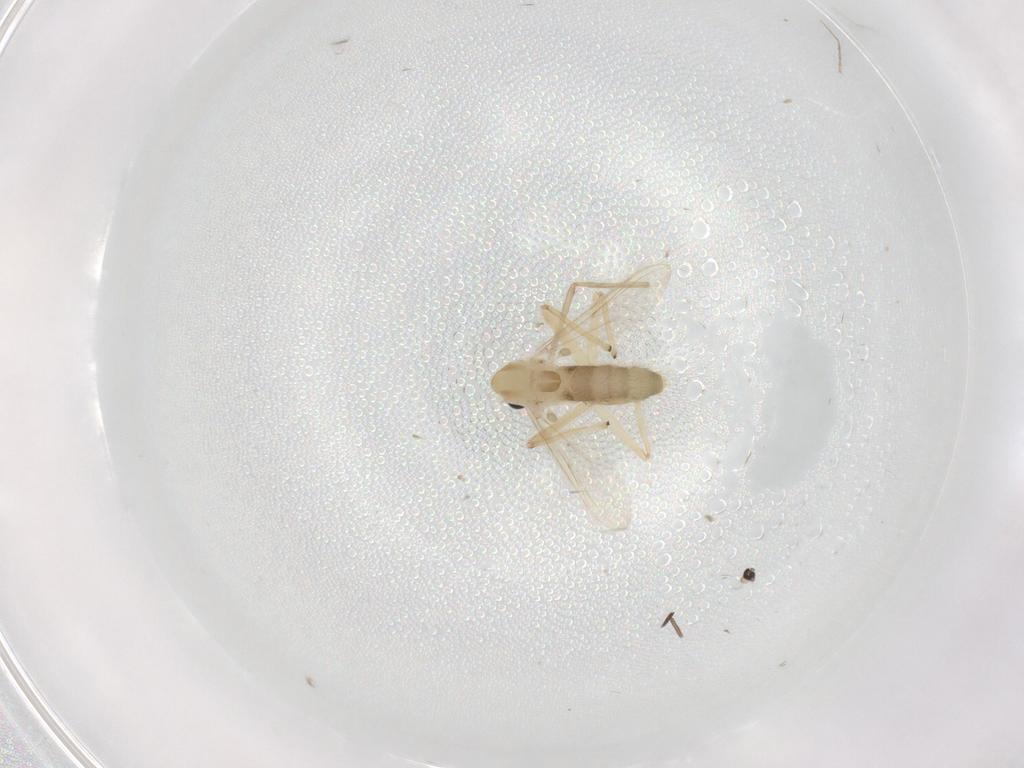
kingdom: Animalia
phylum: Arthropoda
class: Insecta
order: Diptera
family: Chironomidae
